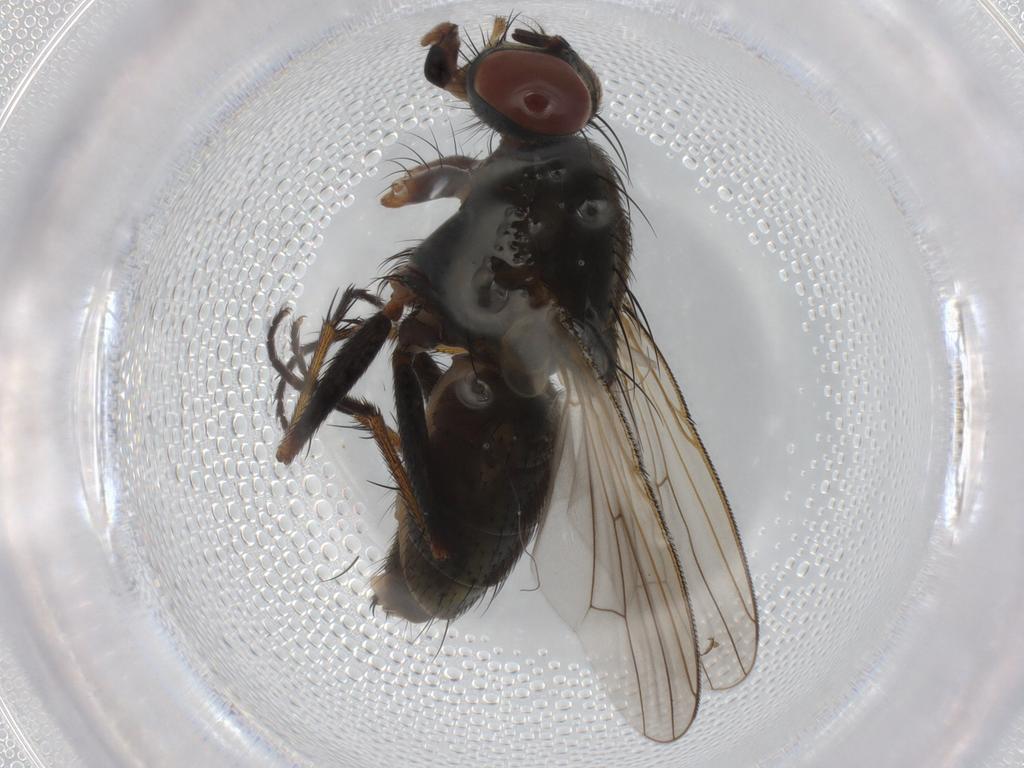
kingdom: Animalia
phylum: Arthropoda
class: Insecta
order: Diptera
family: Muscidae
